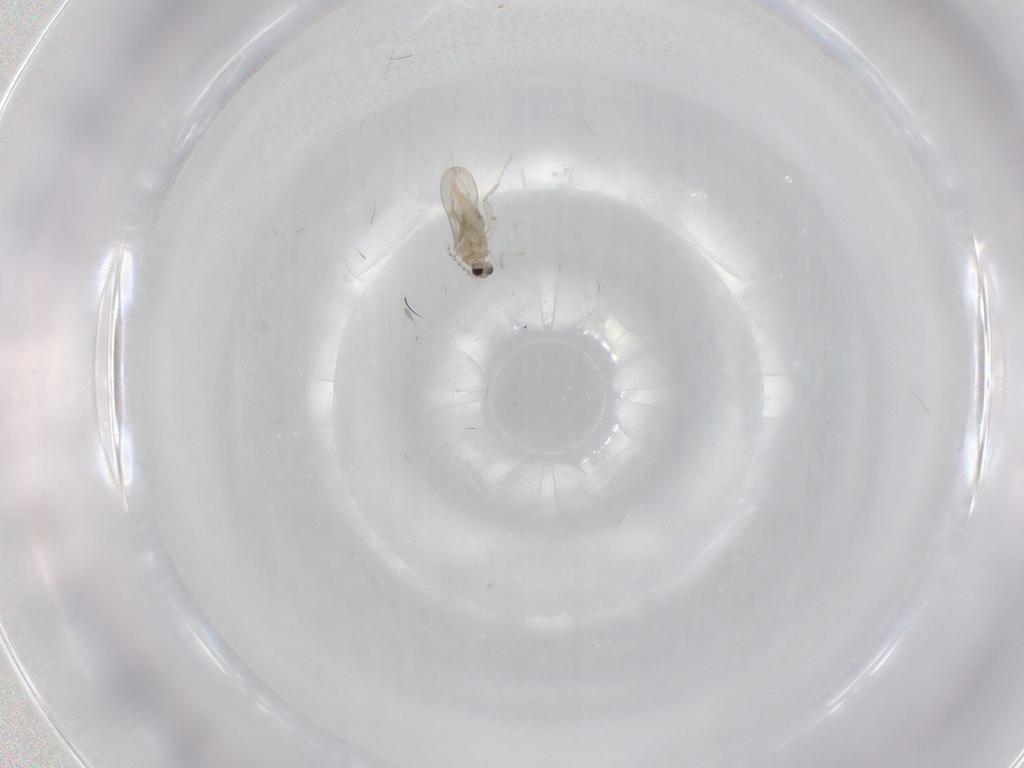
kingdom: Animalia
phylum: Arthropoda
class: Insecta
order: Diptera
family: Cecidomyiidae
